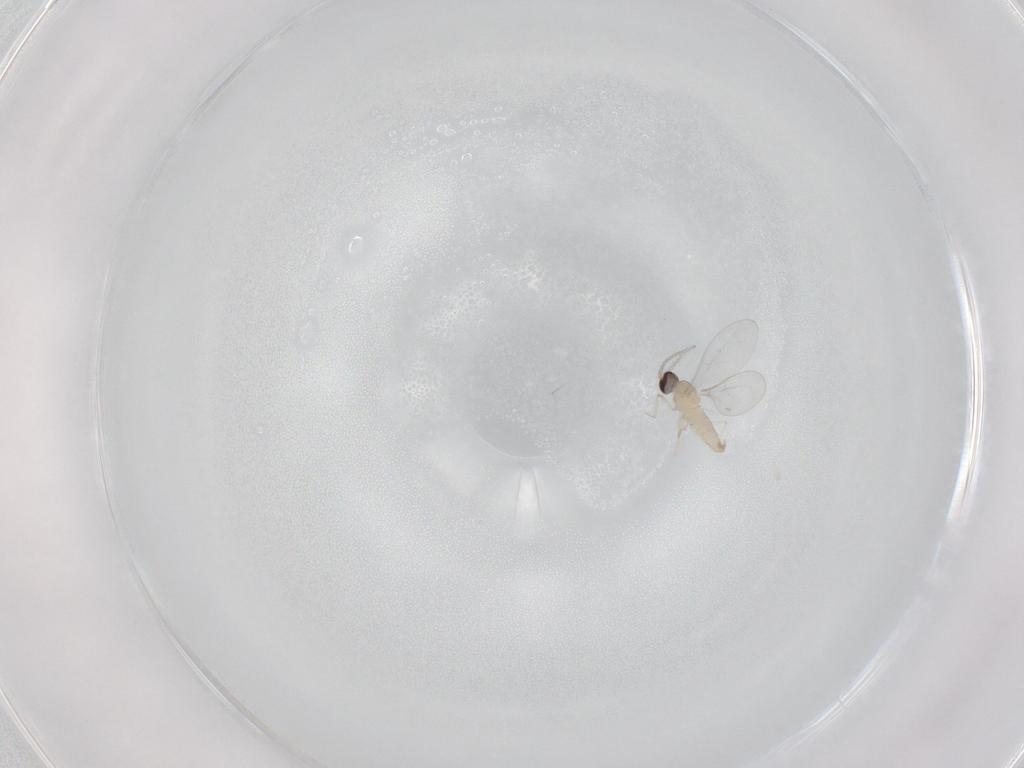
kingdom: Animalia
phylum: Arthropoda
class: Insecta
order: Diptera
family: Cecidomyiidae
